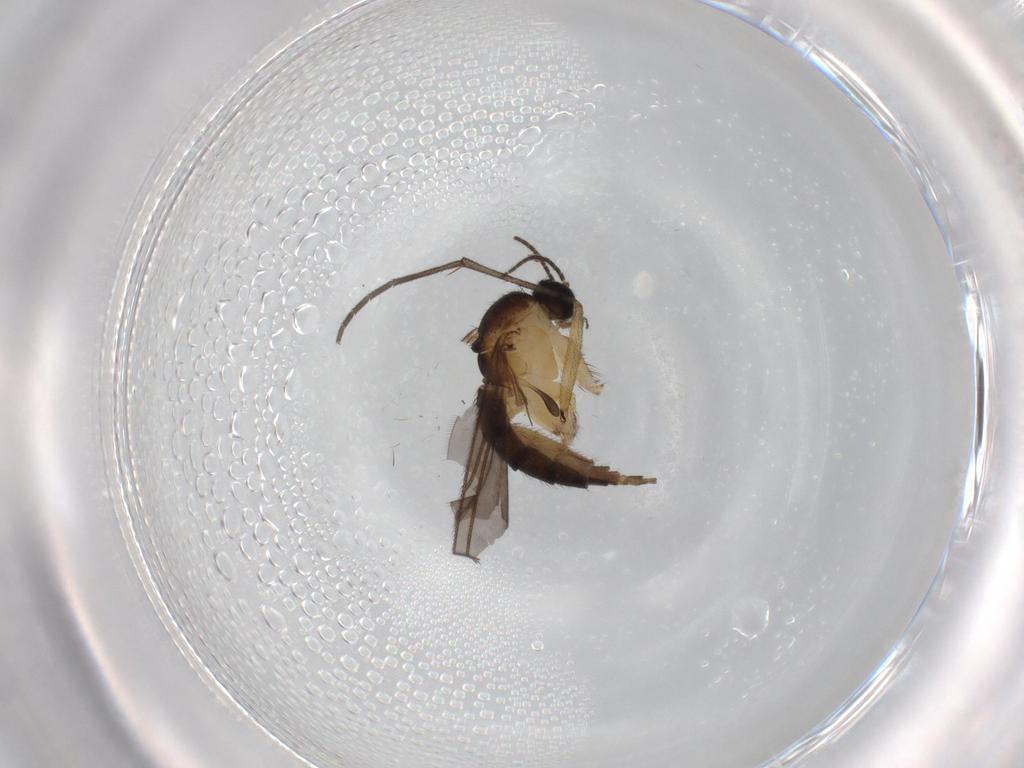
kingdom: Animalia
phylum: Arthropoda
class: Insecta
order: Diptera
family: Sciaridae
